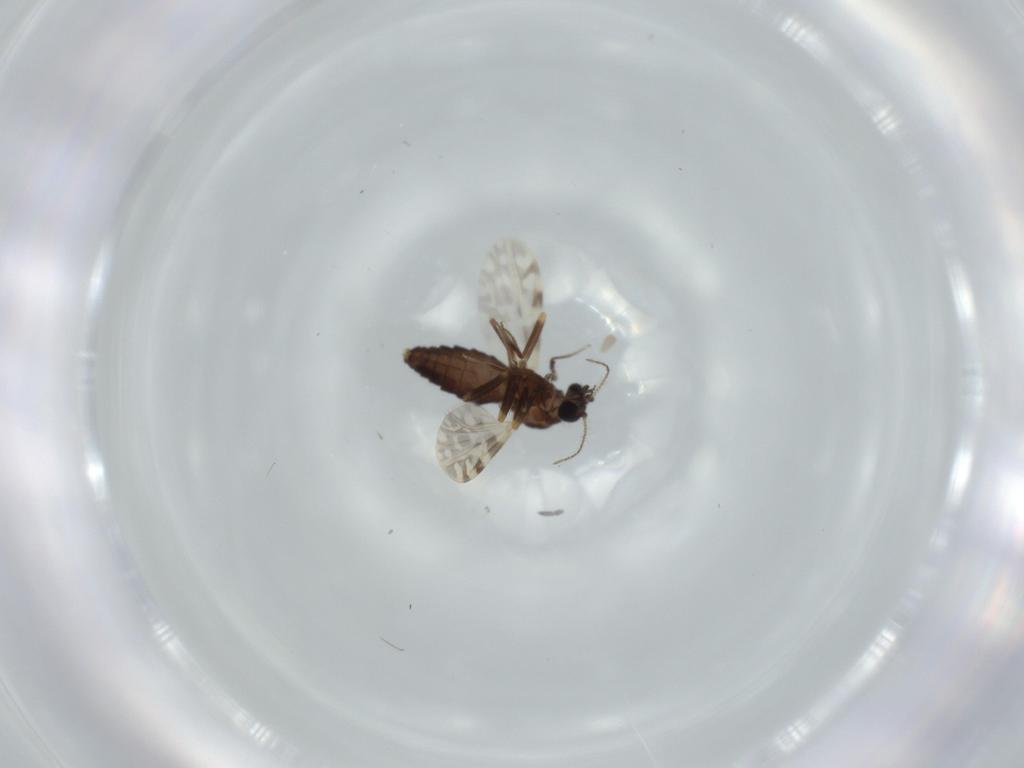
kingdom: Animalia
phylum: Arthropoda
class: Insecta
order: Diptera
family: Ceratopogonidae
